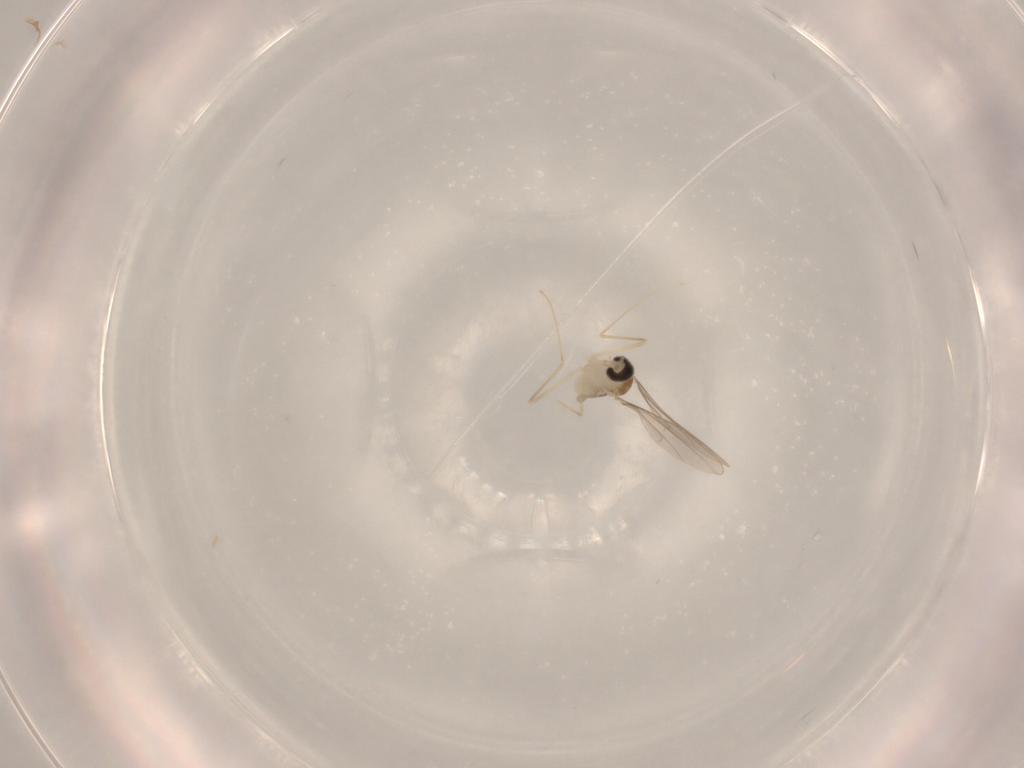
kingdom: Animalia
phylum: Arthropoda
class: Insecta
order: Diptera
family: Cecidomyiidae
